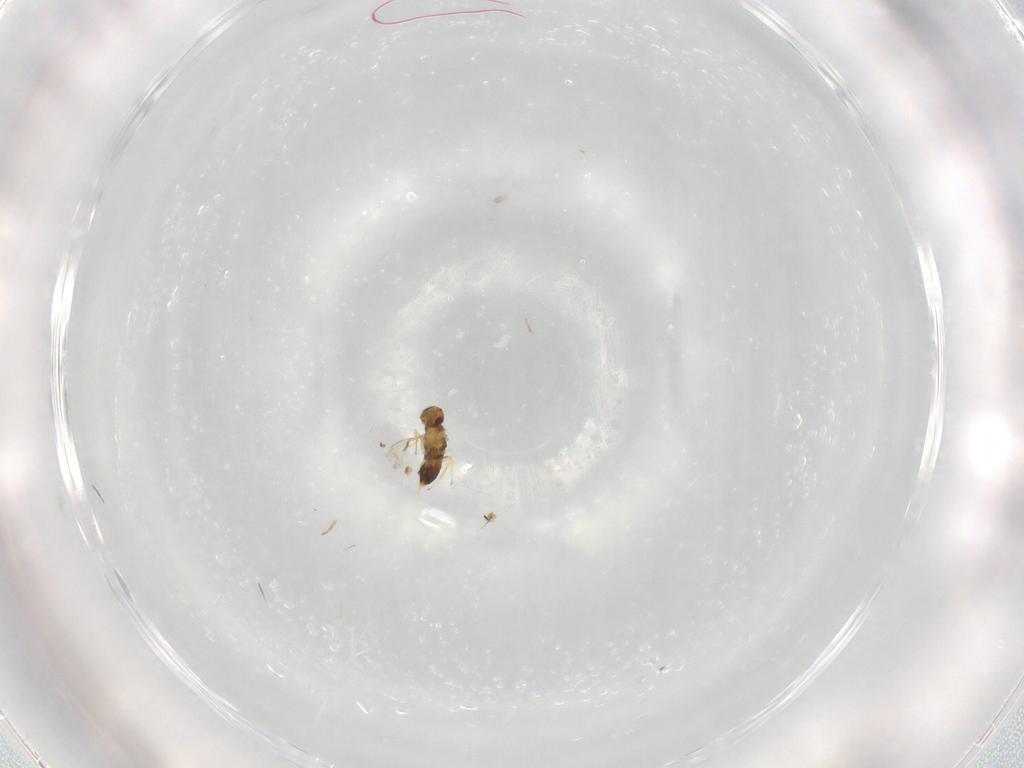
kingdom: Animalia
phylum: Arthropoda
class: Insecta
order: Hymenoptera
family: Aphelinidae
